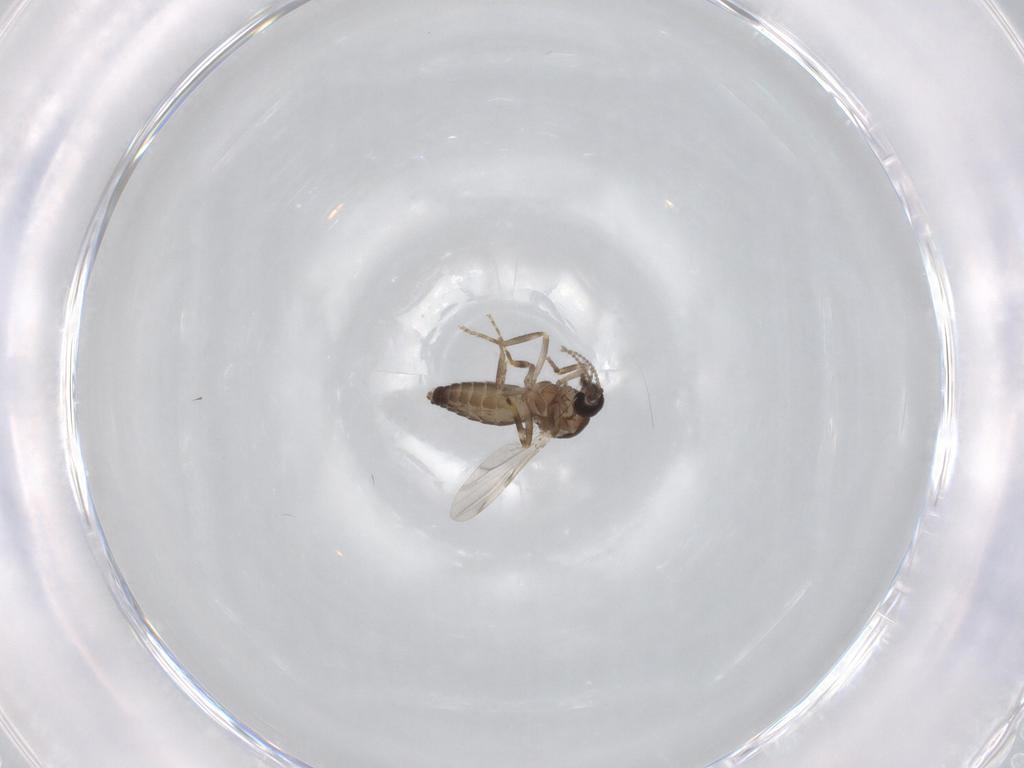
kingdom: Animalia
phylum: Arthropoda
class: Insecta
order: Diptera
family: Ceratopogonidae
